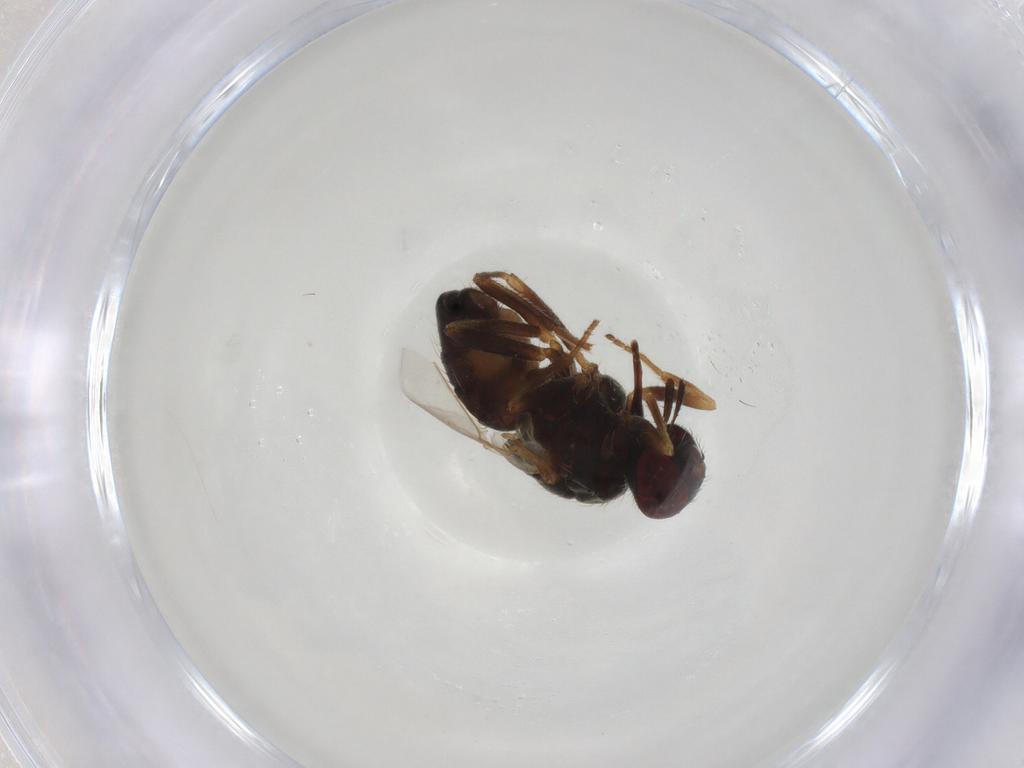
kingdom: Animalia
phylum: Arthropoda
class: Insecta
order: Diptera
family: Muscidae
